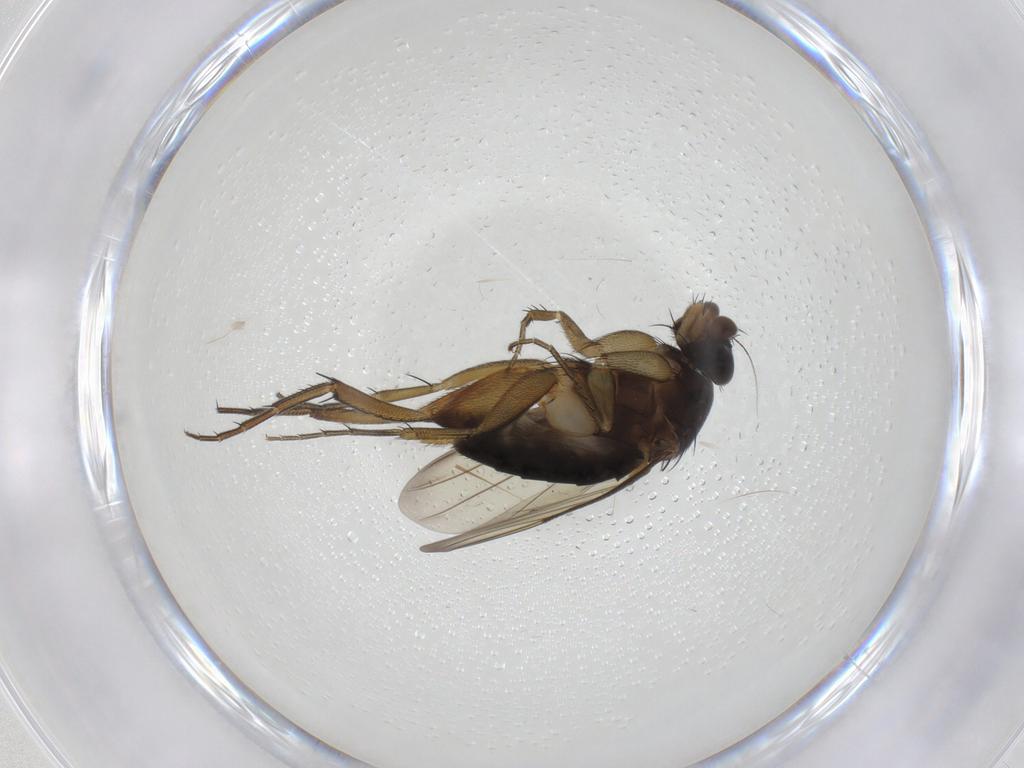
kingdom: Animalia
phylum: Arthropoda
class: Insecta
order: Diptera
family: Phoridae
